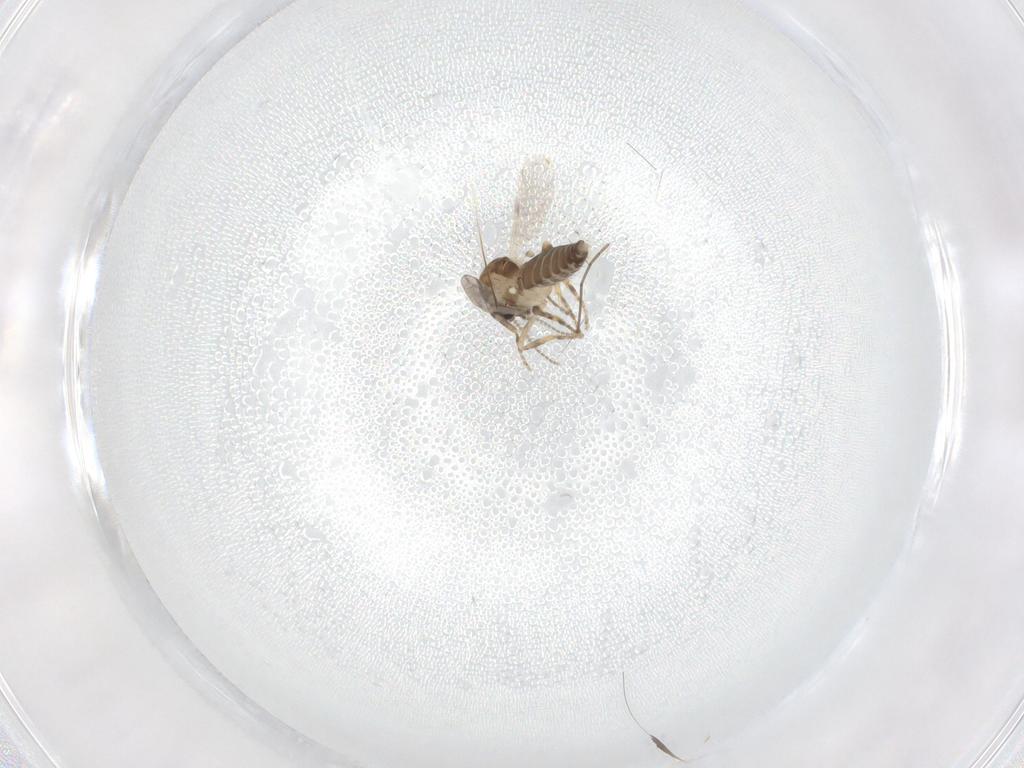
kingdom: Animalia
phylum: Arthropoda
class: Insecta
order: Diptera
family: Ceratopogonidae
